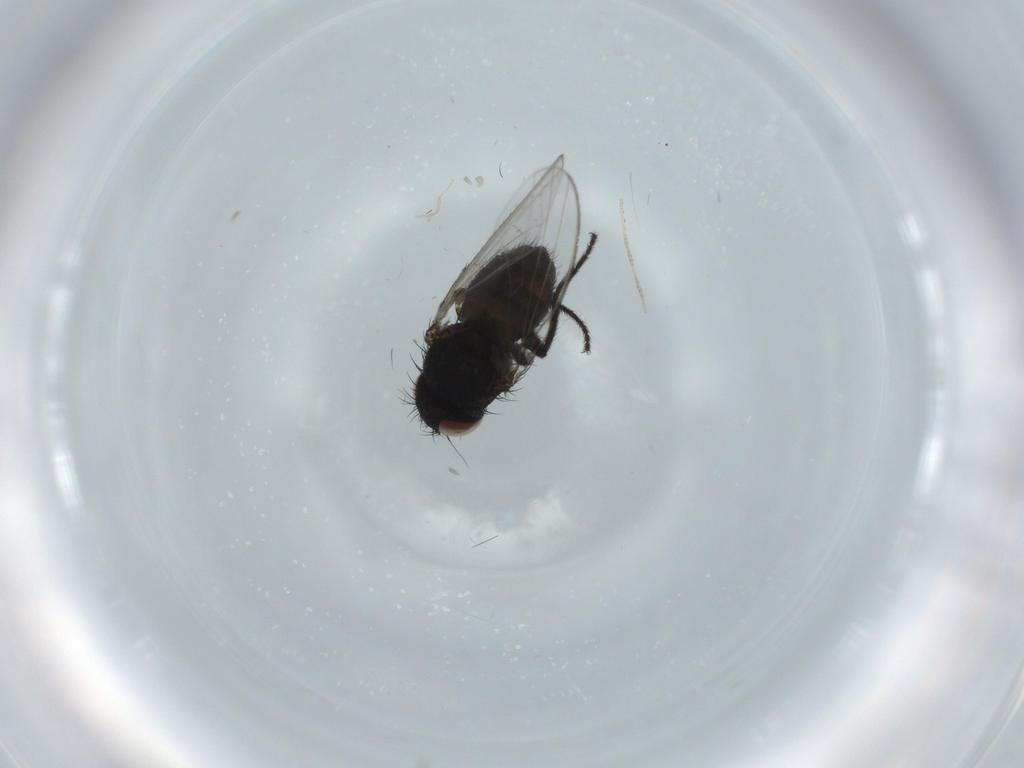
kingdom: Animalia
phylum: Arthropoda
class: Insecta
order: Diptera
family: Milichiidae
